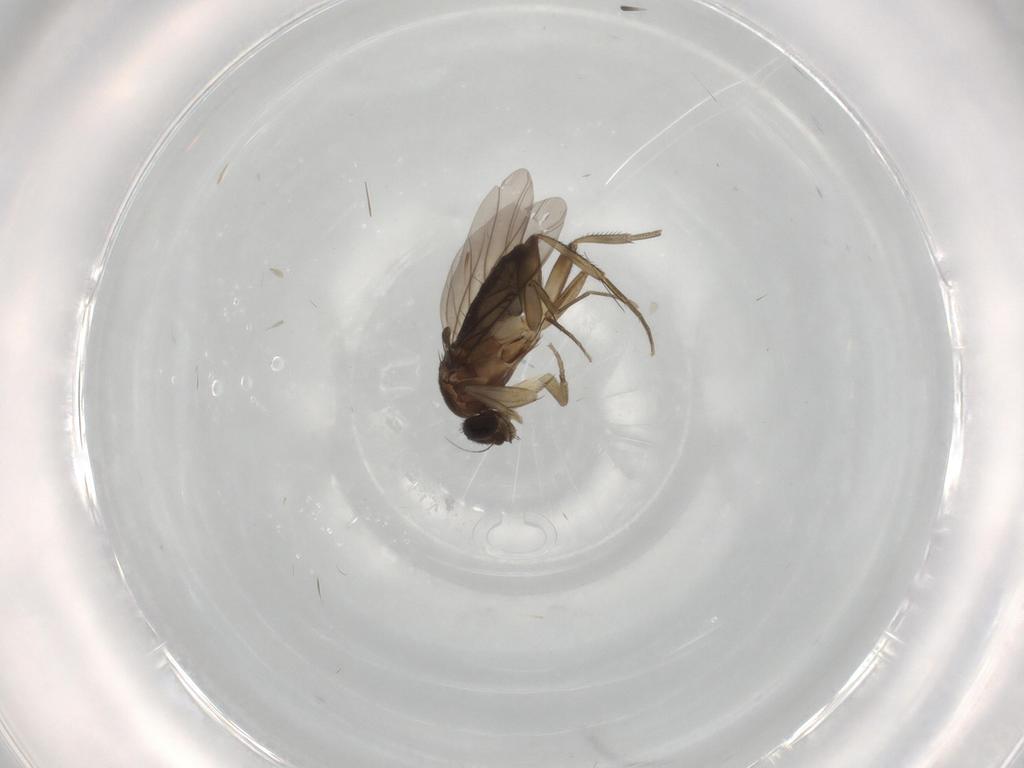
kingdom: Animalia
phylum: Arthropoda
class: Insecta
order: Diptera
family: Phoridae
